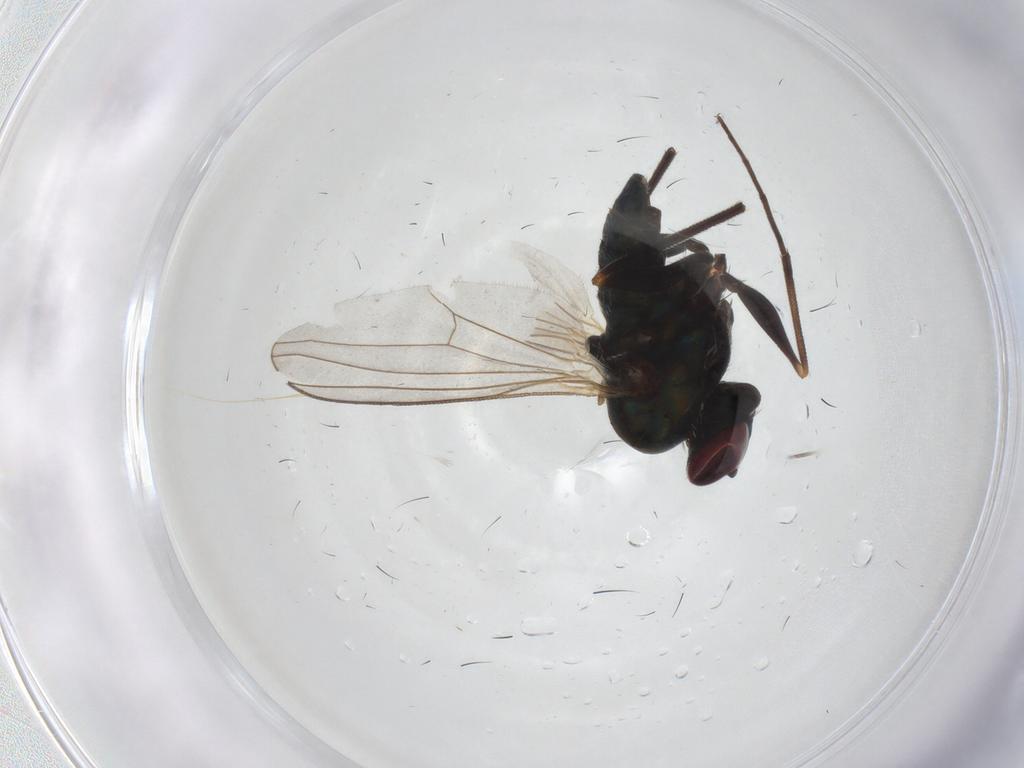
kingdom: Animalia
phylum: Arthropoda
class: Insecta
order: Diptera
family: Dolichopodidae
